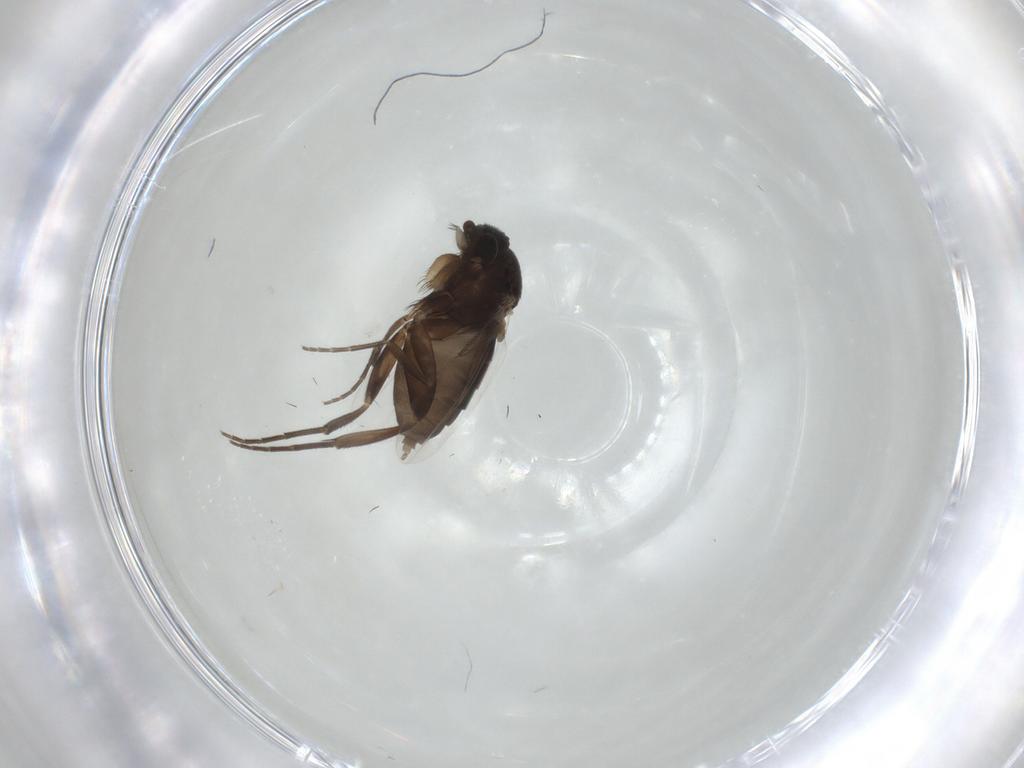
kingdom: Animalia
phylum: Arthropoda
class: Insecta
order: Diptera
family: Phoridae
